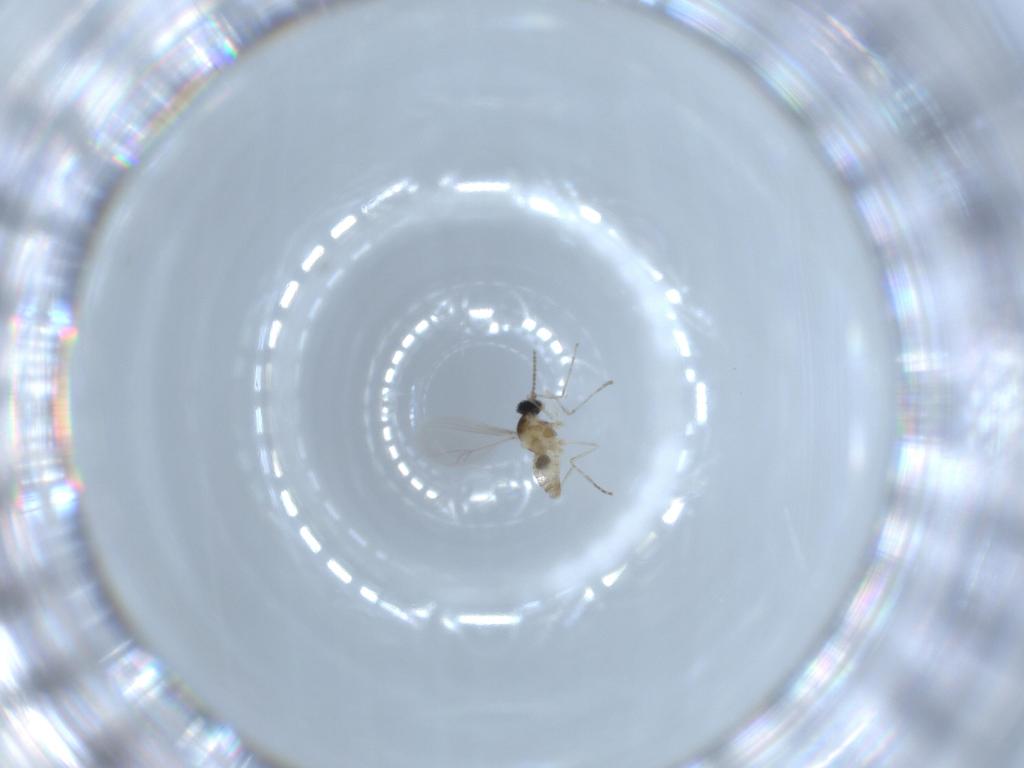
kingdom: Animalia
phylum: Arthropoda
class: Insecta
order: Diptera
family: Cecidomyiidae
